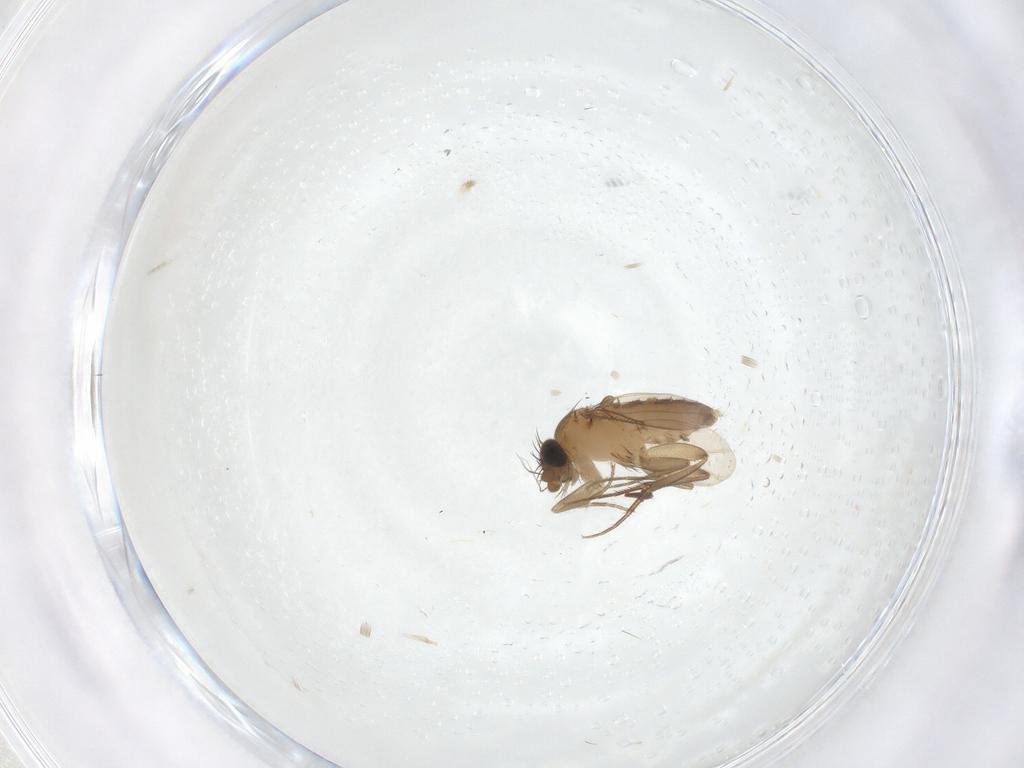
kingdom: Animalia
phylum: Arthropoda
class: Insecta
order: Diptera
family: Phoridae
